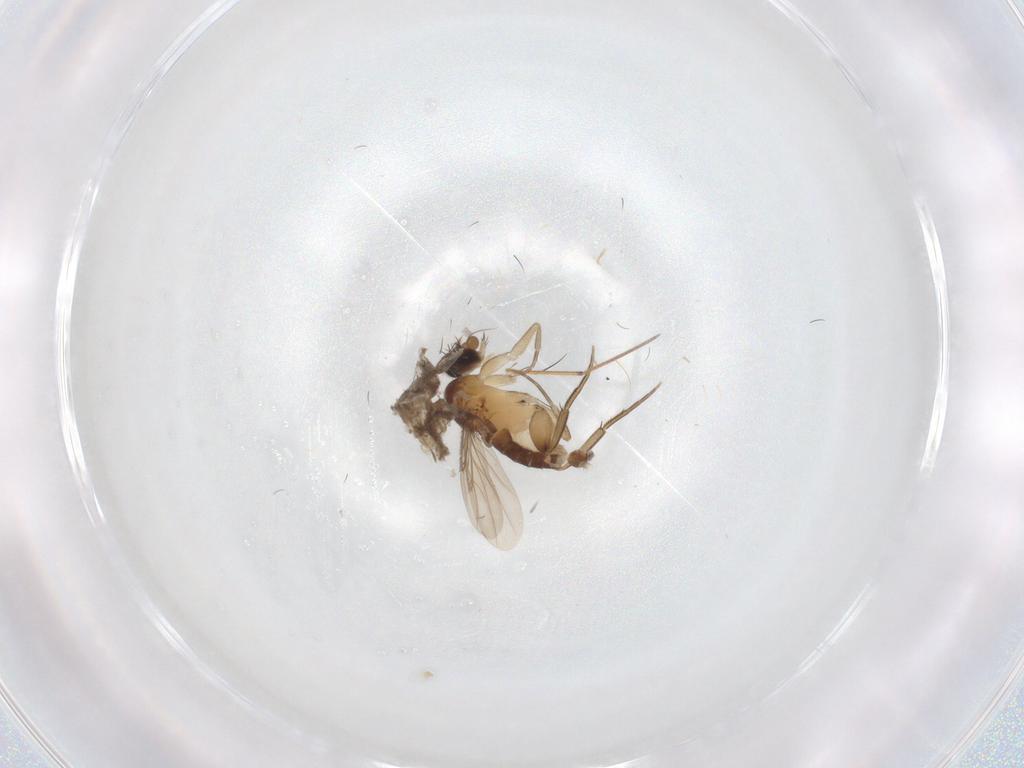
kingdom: Animalia
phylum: Arthropoda
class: Insecta
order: Diptera
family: Phoridae
